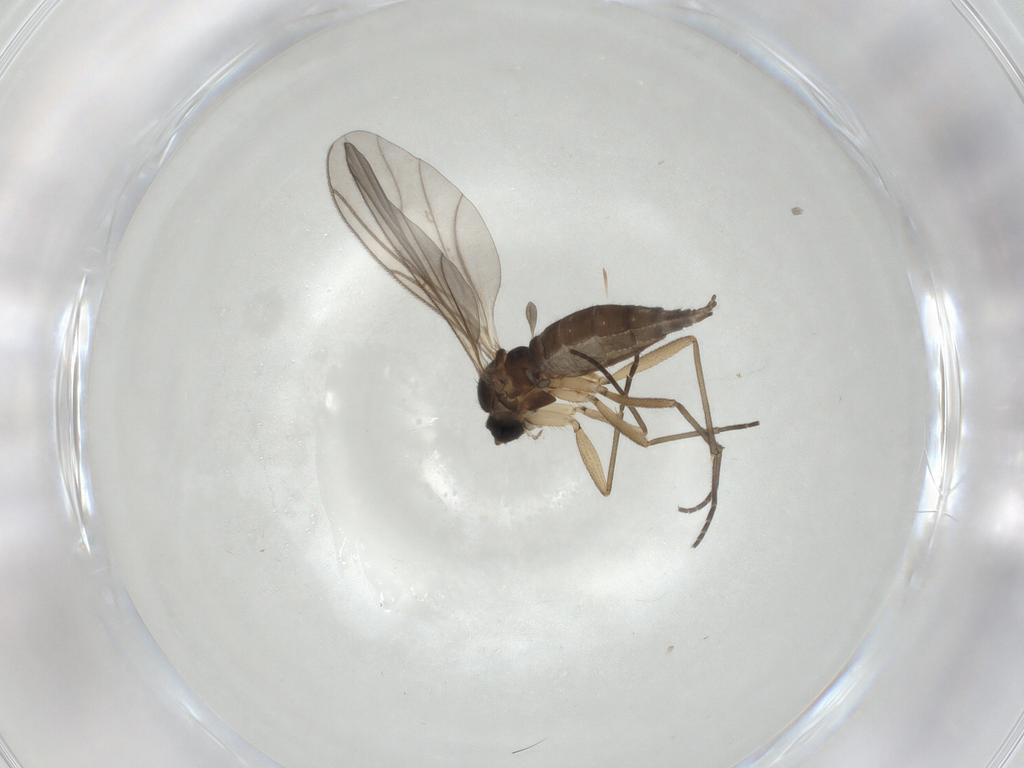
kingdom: Animalia
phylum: Arthropoda
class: Insecta
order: Diptera
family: Sciaridae
